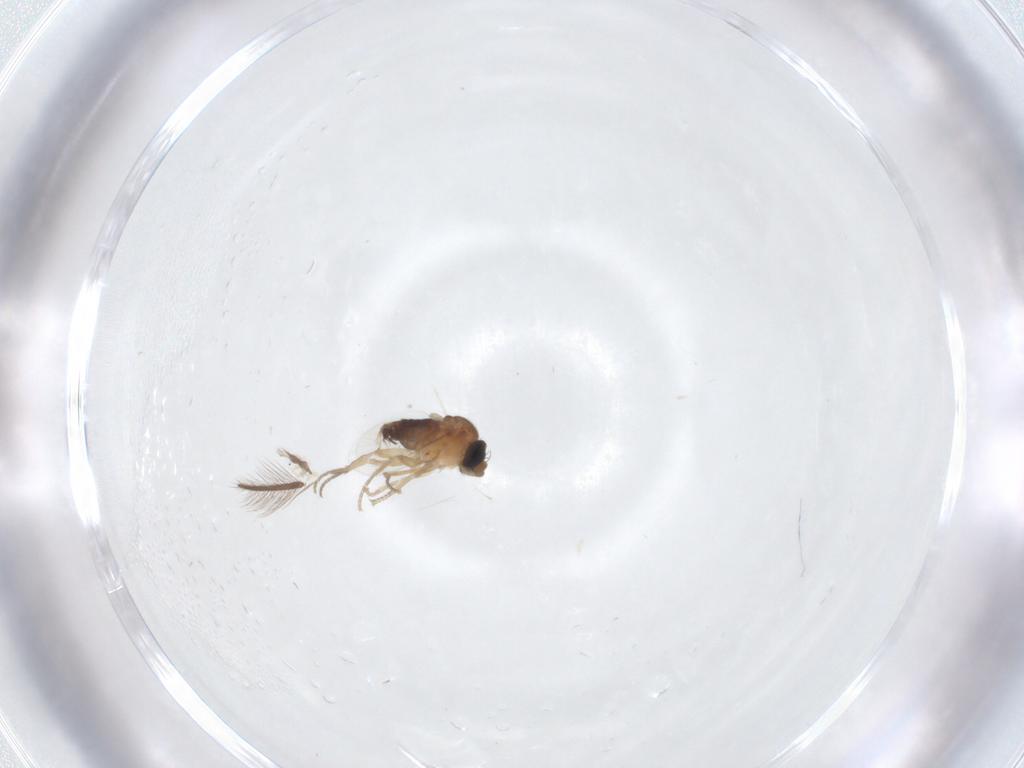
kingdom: Animalia
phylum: Arthropoda
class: Insecta
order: Diptera
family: Phoridae
